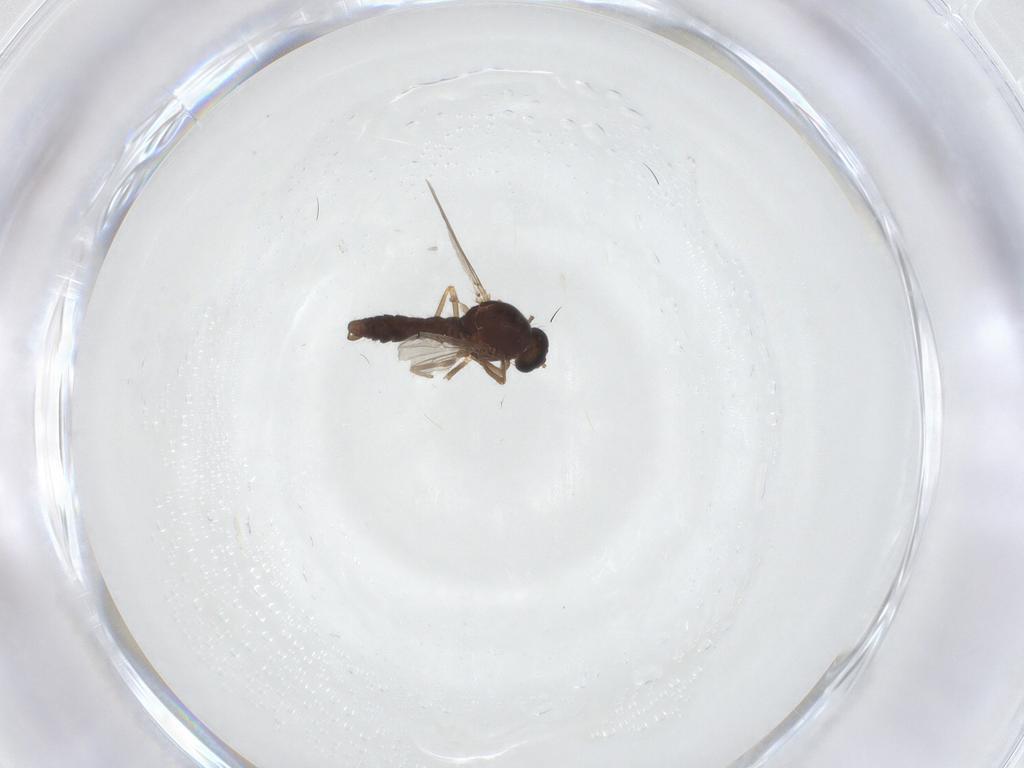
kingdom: Animalia
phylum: Arthropoda
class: Insecta
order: Diptera
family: Ceratopogonidae
